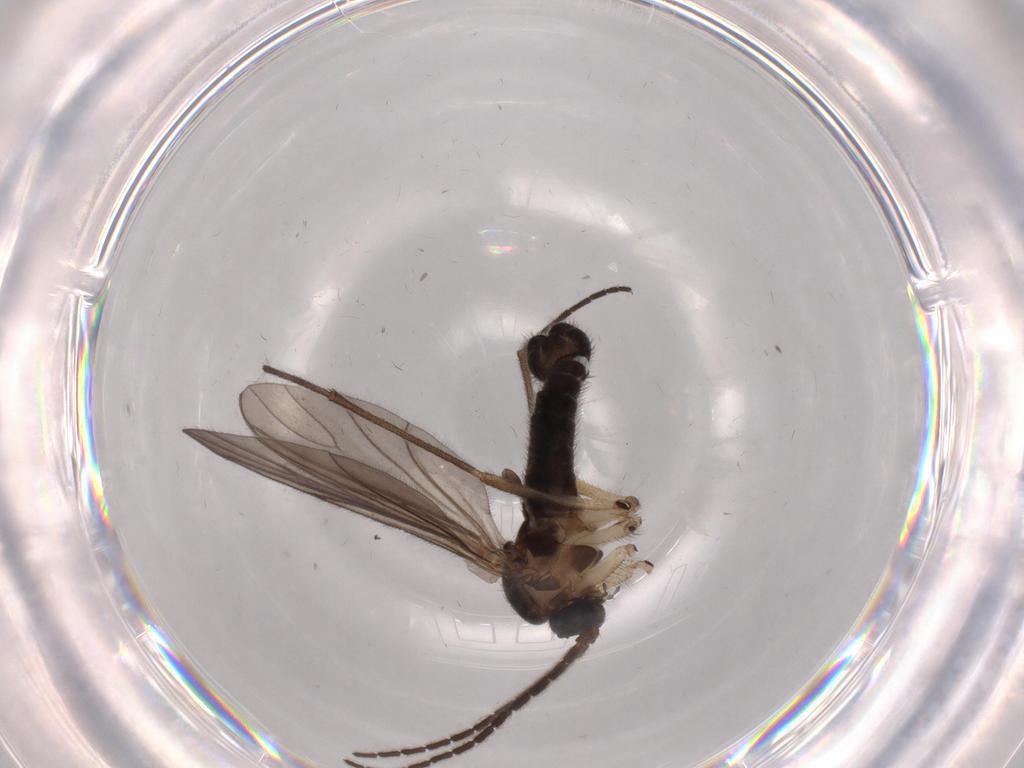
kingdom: Animalia
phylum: Arthropoda
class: Insecta
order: Diptera
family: Sciaridae
